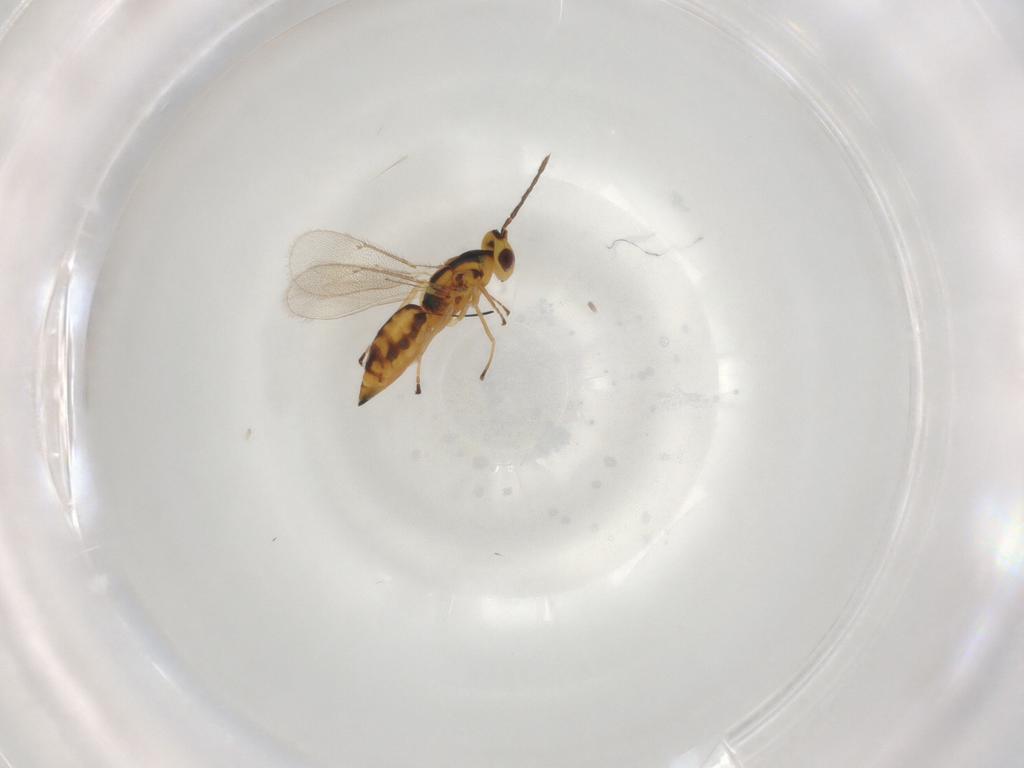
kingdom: Animalia
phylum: Arthropoda
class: Insecta
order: Hymenoptera
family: Eulophidae
